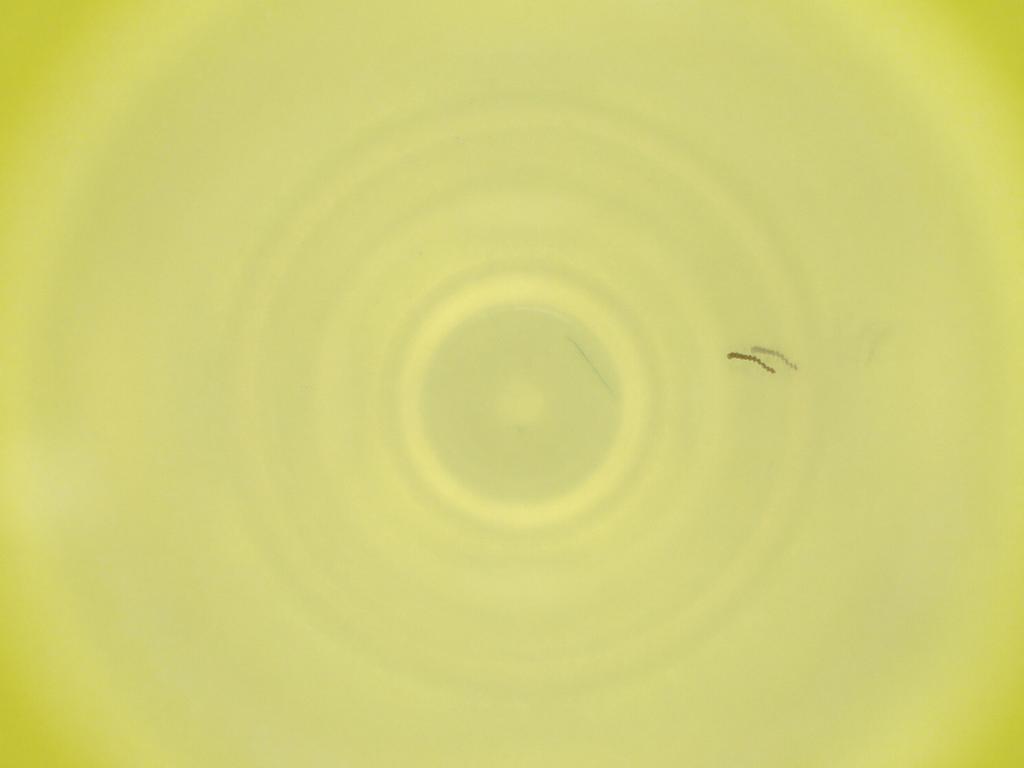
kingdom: Animalia
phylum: Arthropoda
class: Insecta
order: Diptera
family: Cecidomyiidae
